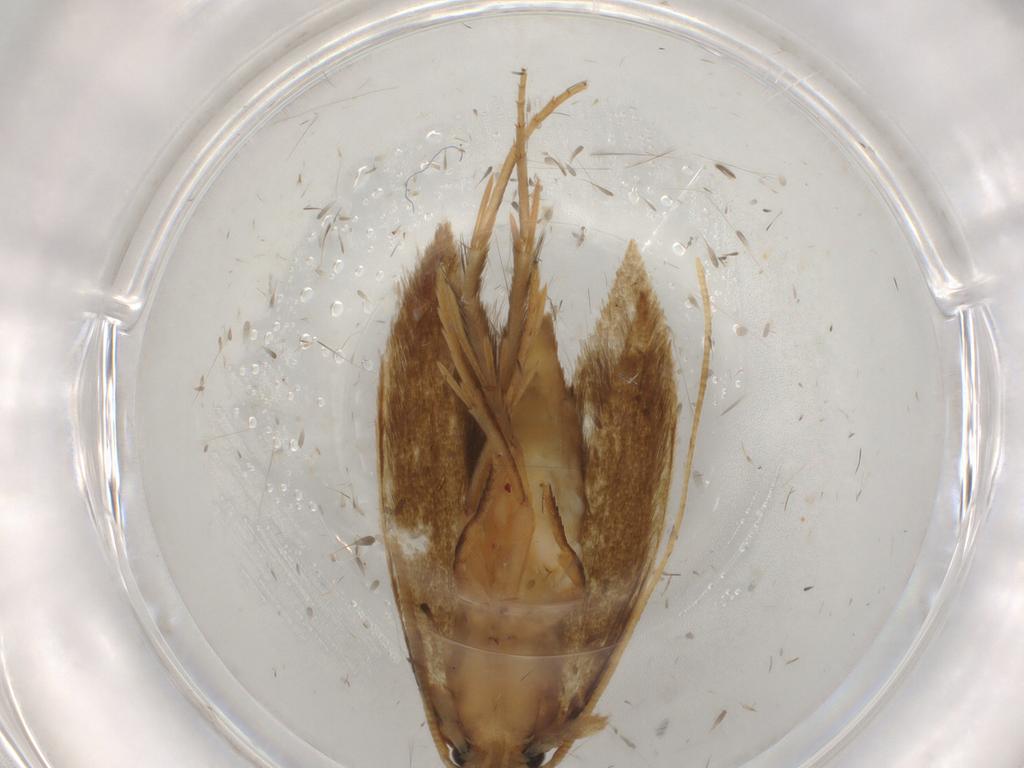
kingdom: Animalia
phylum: Arthropoda
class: Insecta
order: Lepidoptera
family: Tineidae
